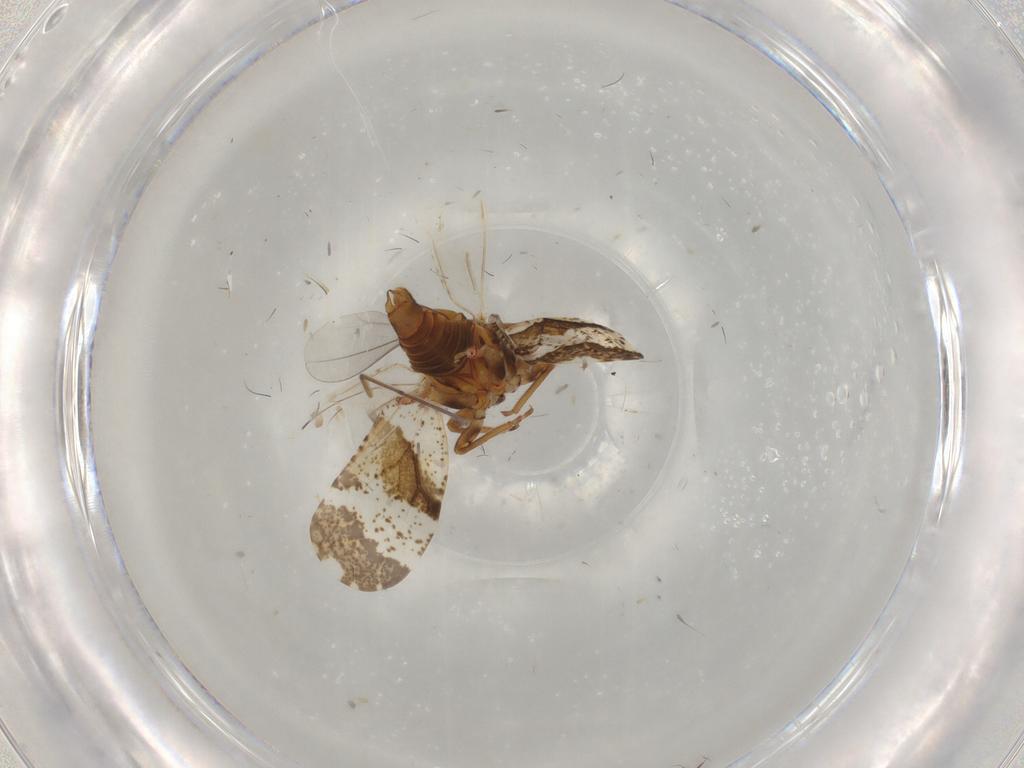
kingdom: Animalia
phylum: Arthropoda
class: Insecta
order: Hemiptera
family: Psyllidae
